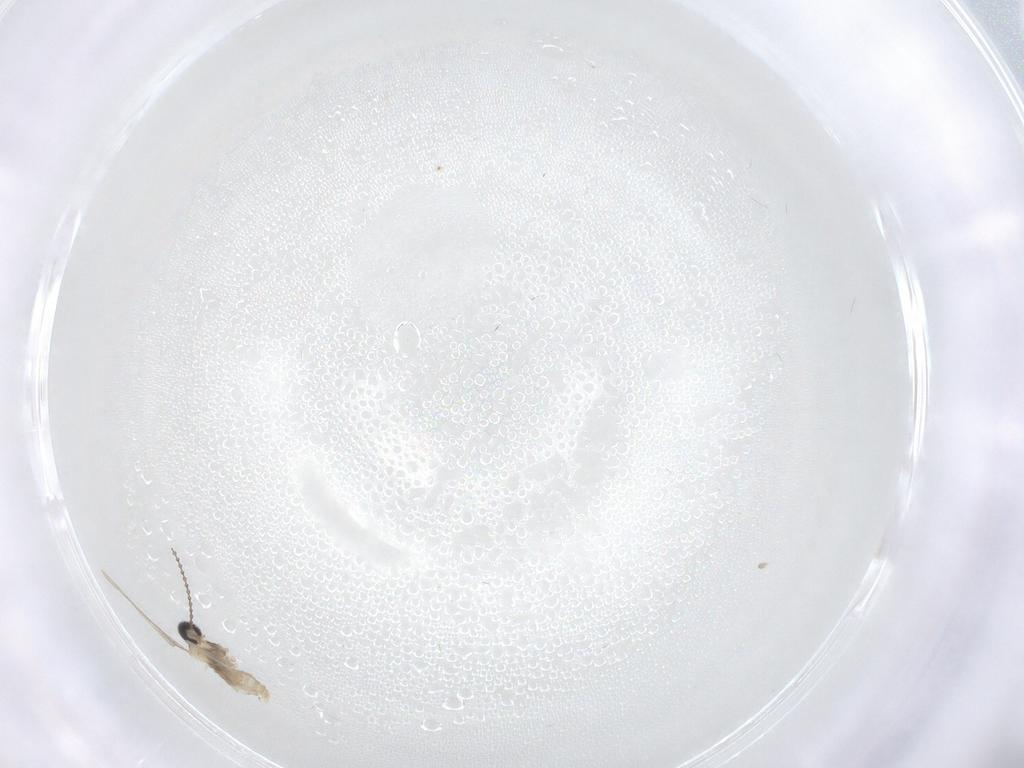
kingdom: Animalia
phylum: Arthropoda
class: Insecta
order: Diptera
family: Cecidomyiidae
